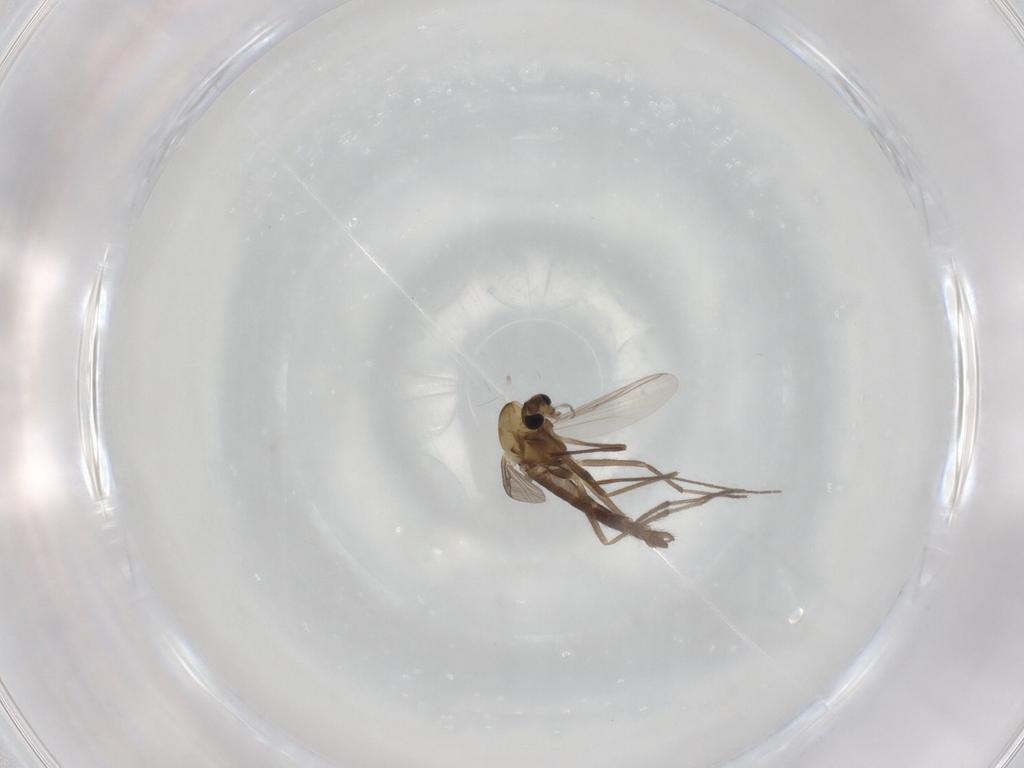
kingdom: Animalia
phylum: Arthropoda
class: Insecta
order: Diptera
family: Chironomidae
